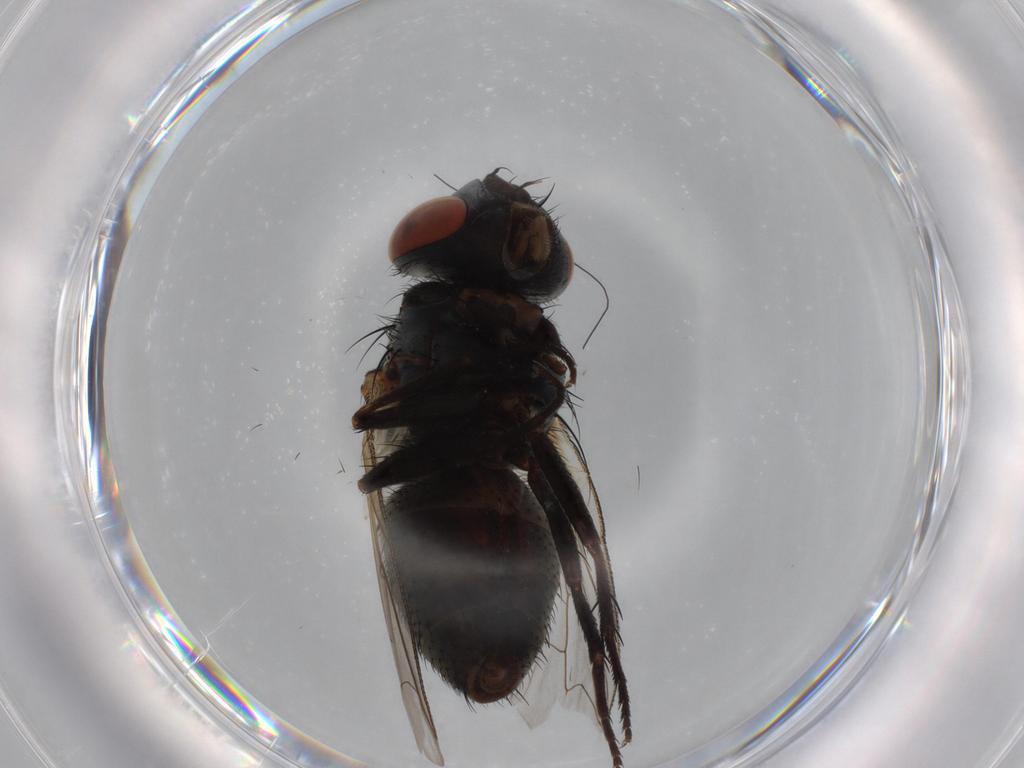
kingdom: Animalia
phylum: Arthropoda
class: Insecta
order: Diptera
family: Sarcophagidae
